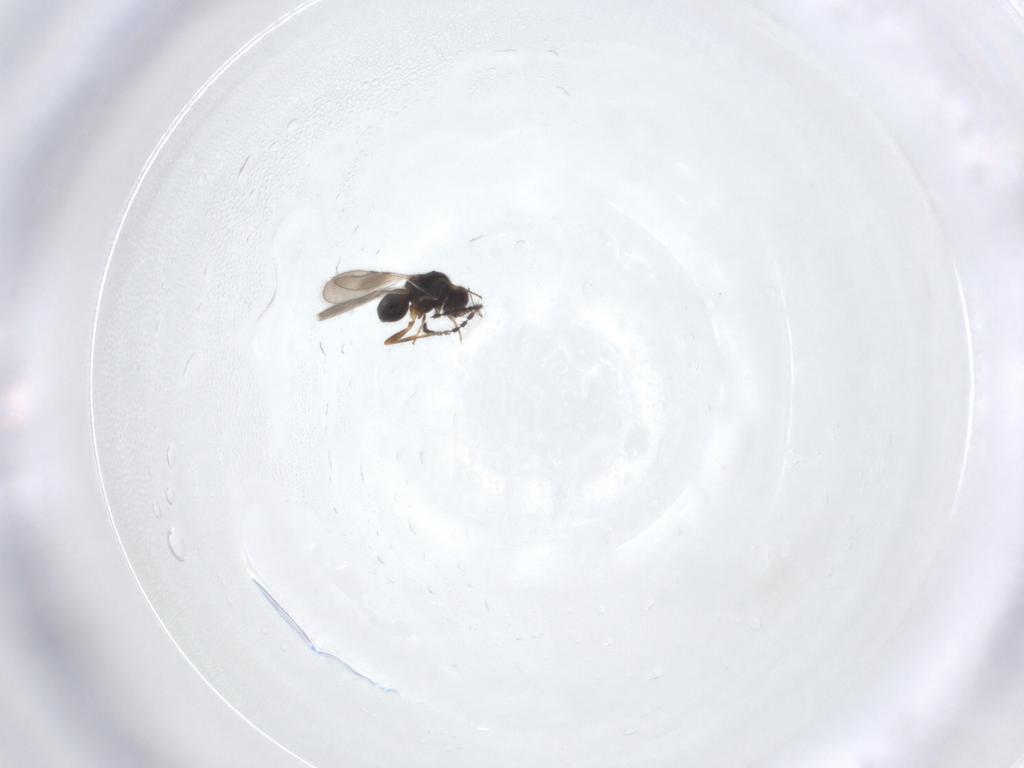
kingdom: Animalia
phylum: Arthropoda
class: Insecta
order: Hymenoptera
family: Ceraphronidae
